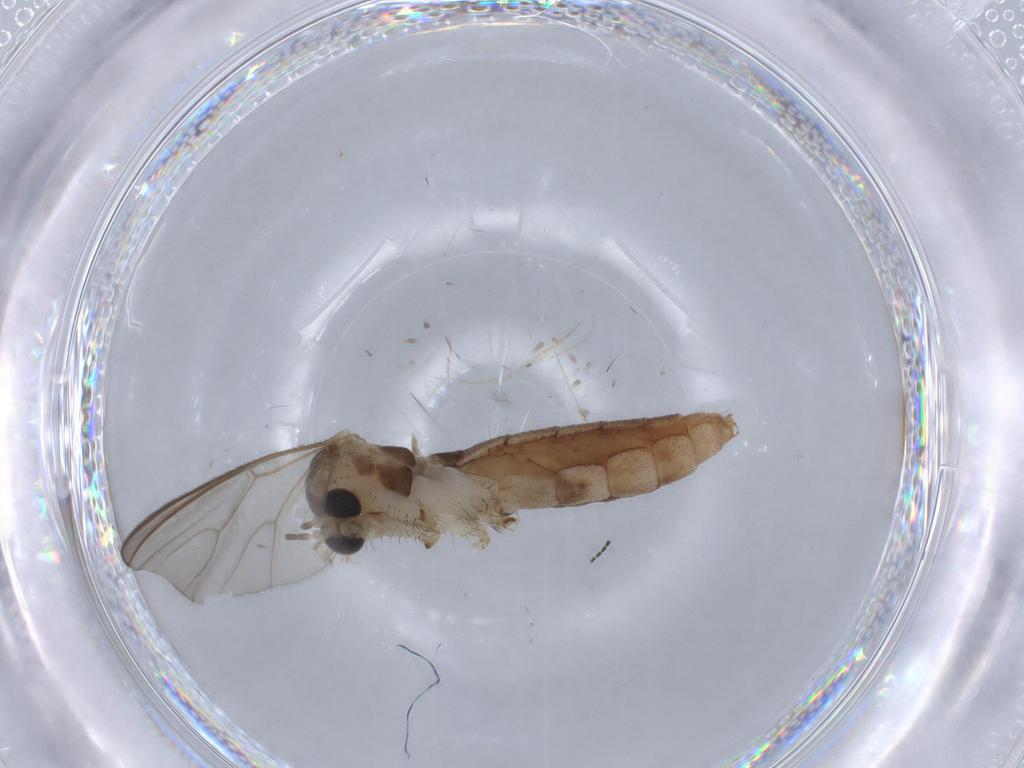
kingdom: Animalia
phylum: Arthropoda
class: Insecta
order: Diptera
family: Mycetophilidae
